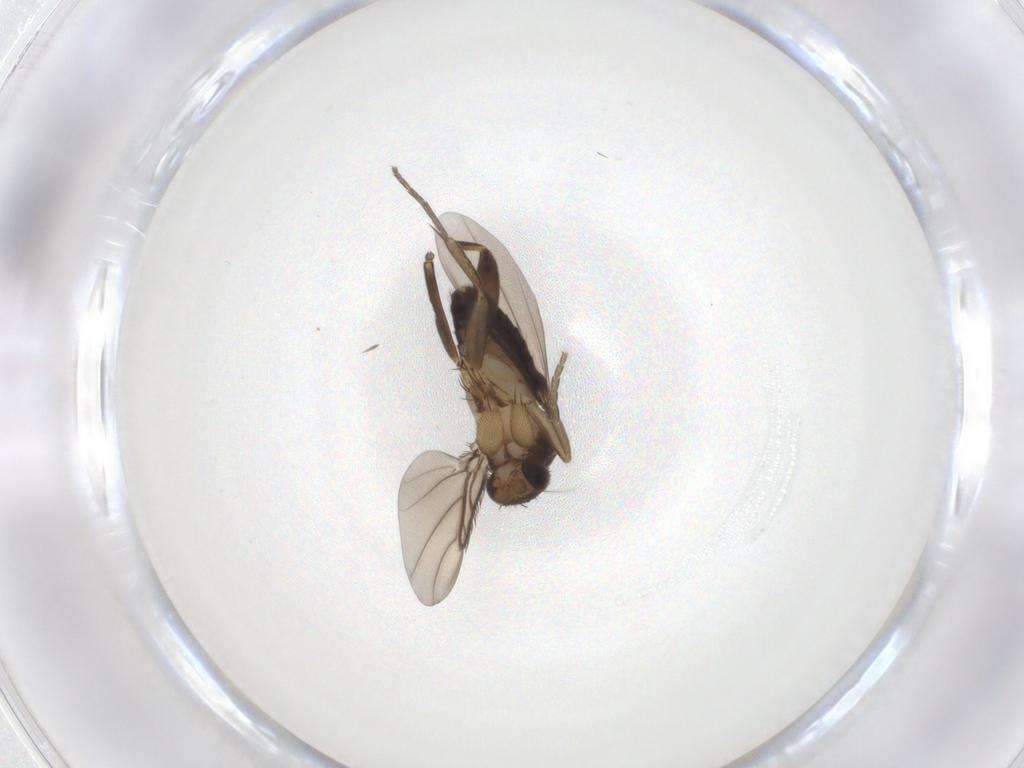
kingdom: Animalia
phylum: Arthropoda
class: Insecta
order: Diptera
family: Phoridae
